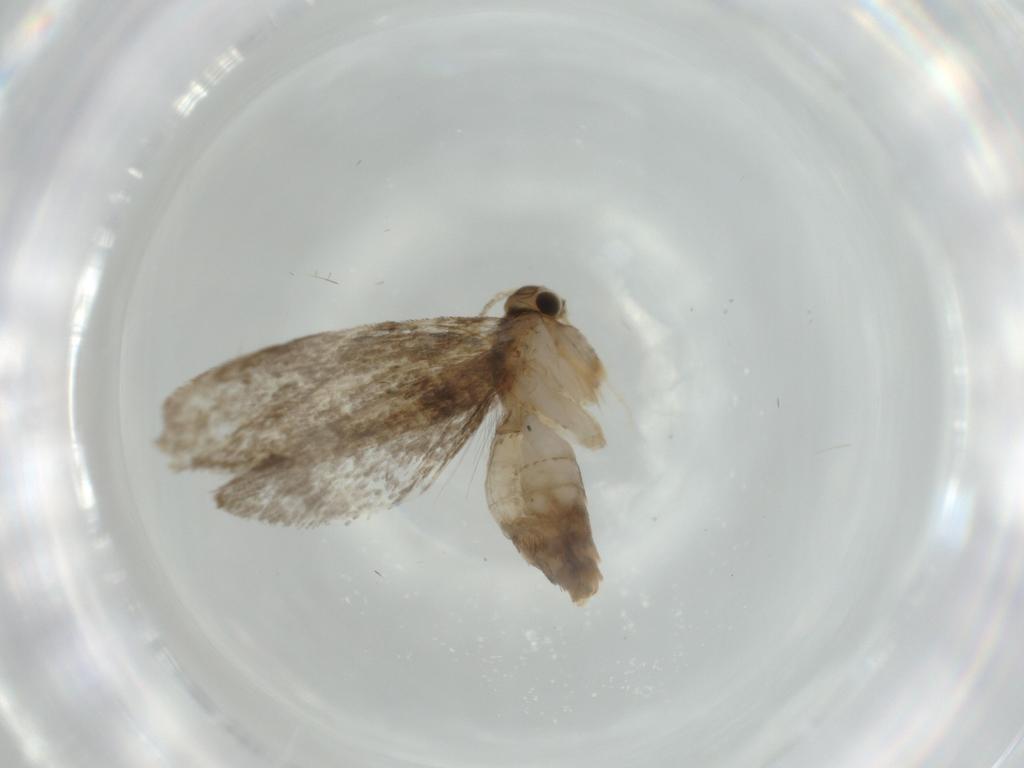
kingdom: Animalia
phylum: Arthropoda
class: Insecta
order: Lepidoptera
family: Tineidae
